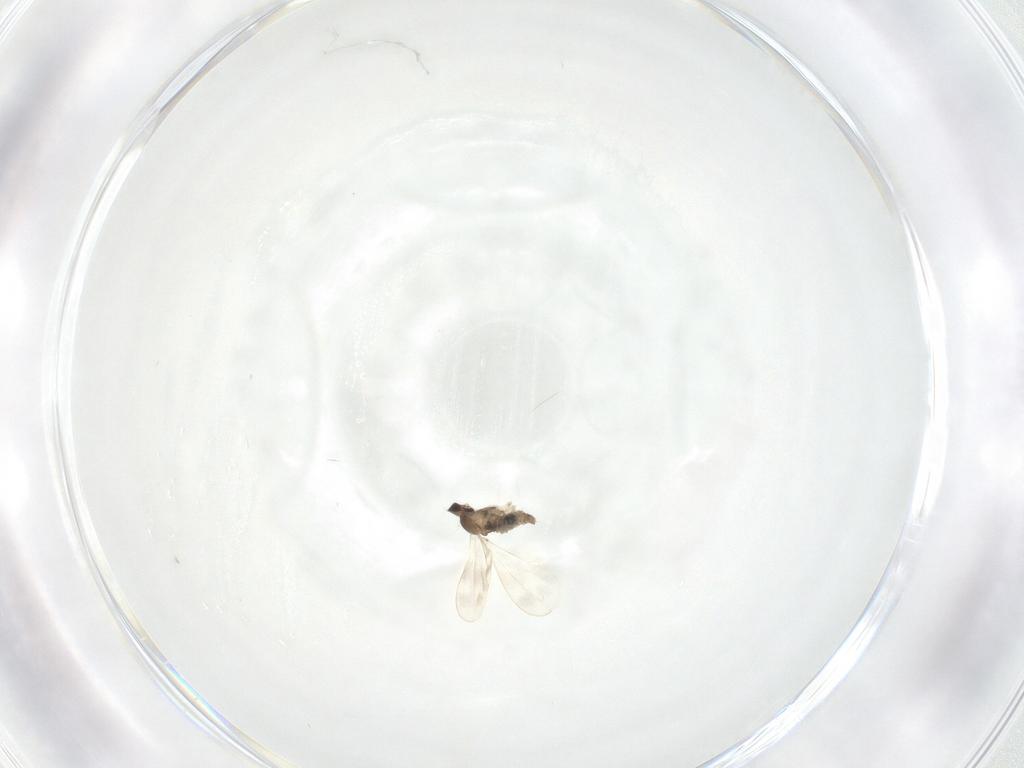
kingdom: Animalia
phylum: Arthropoda
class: Insecta
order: Diptera
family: Cecidomyiidae
